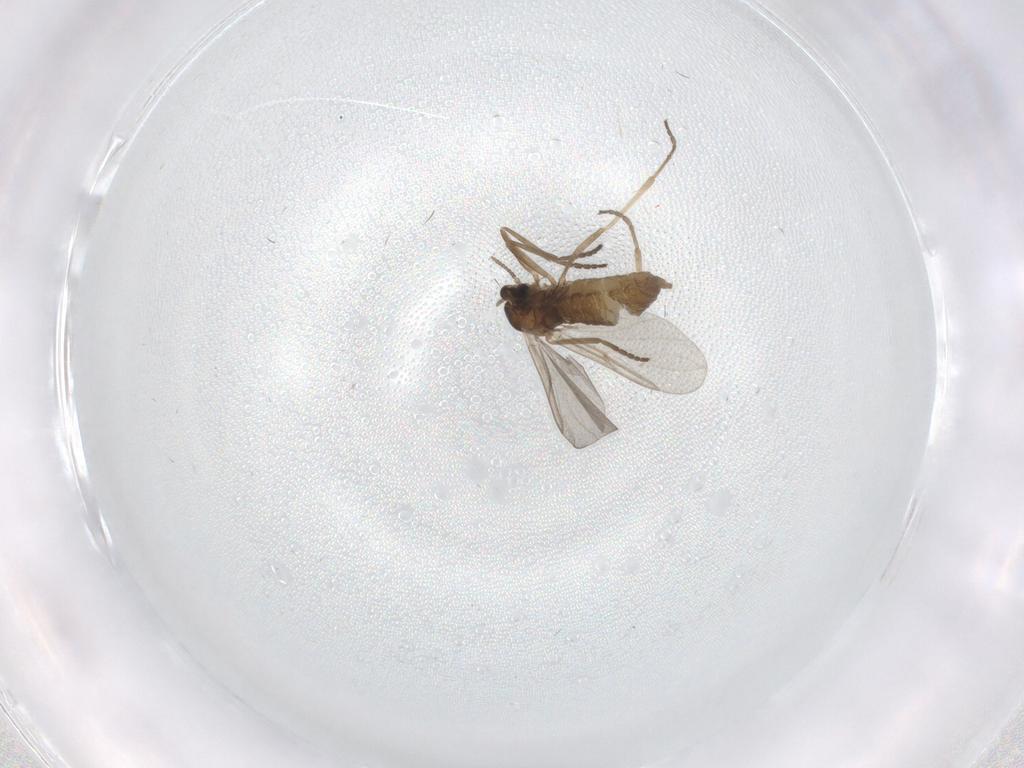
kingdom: Animalia
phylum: Arthropoda
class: Insecta
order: Diptera
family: Cecidomyiidae
